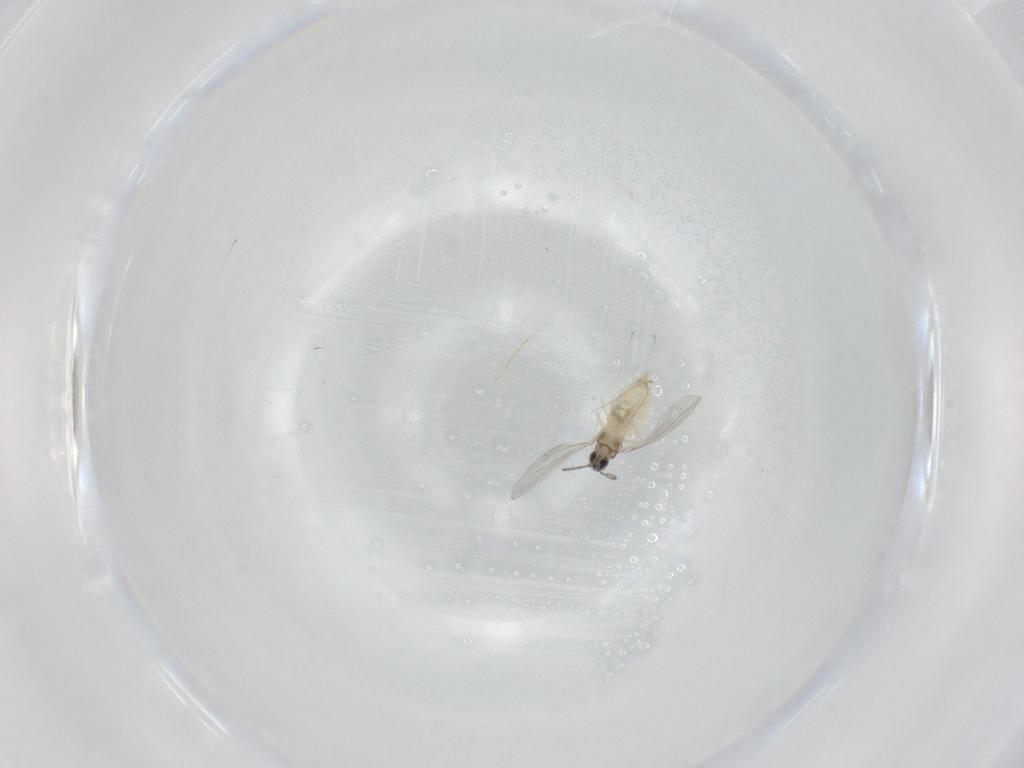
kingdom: Animalia
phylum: Arthropoda
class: Insecta
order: Diptera
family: Cecidomyiidae
